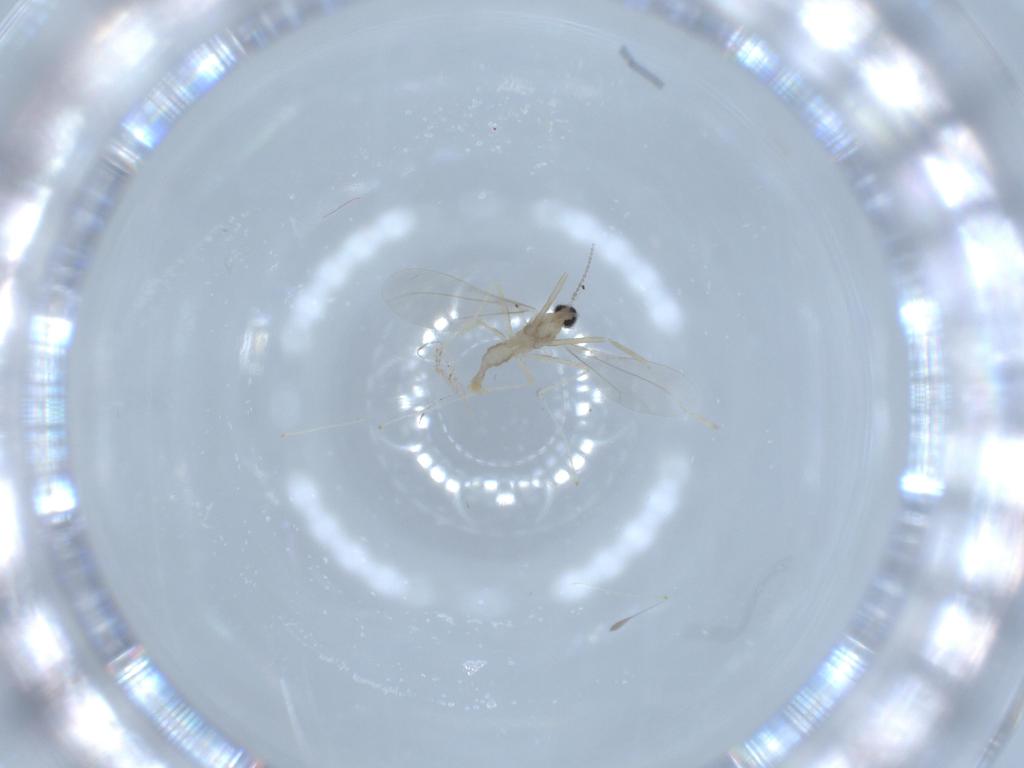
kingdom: Animalia
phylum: Arthropoda
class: Insecta
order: Diptera
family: Cecidomyiidae
